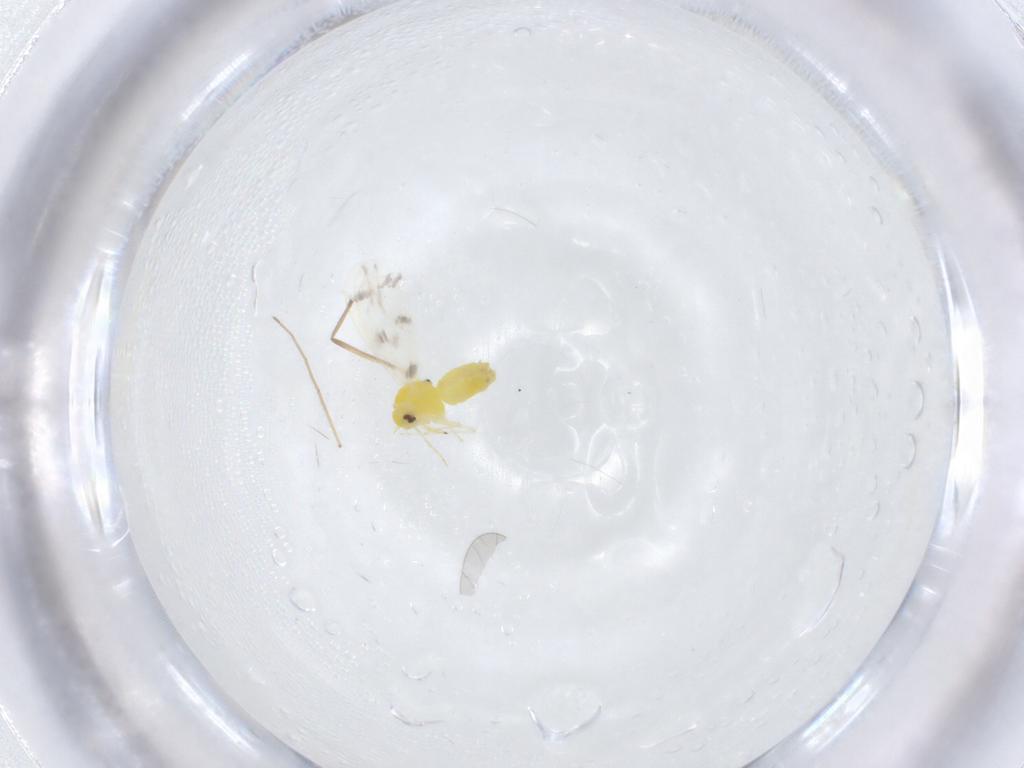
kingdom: Animalia
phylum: Arthropoda
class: Insecta
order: Hemiptera
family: Aleyrodidae
